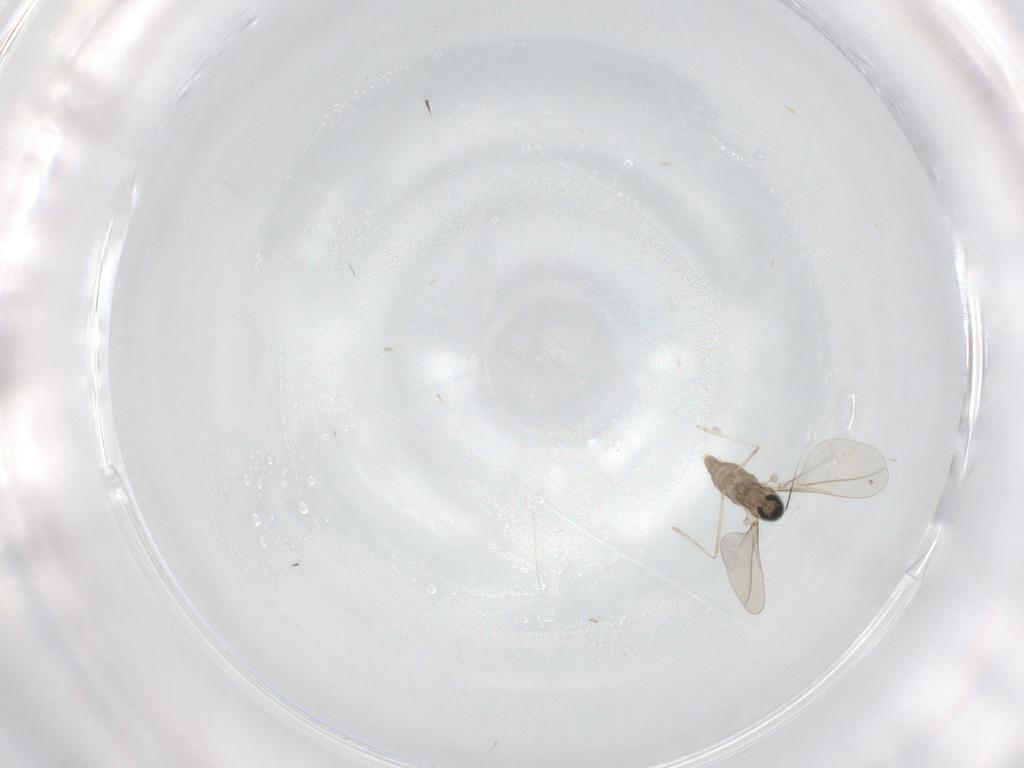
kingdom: Animalia
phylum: Arthropoda
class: Insecta
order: Diptera
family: Cecidomyiidae
